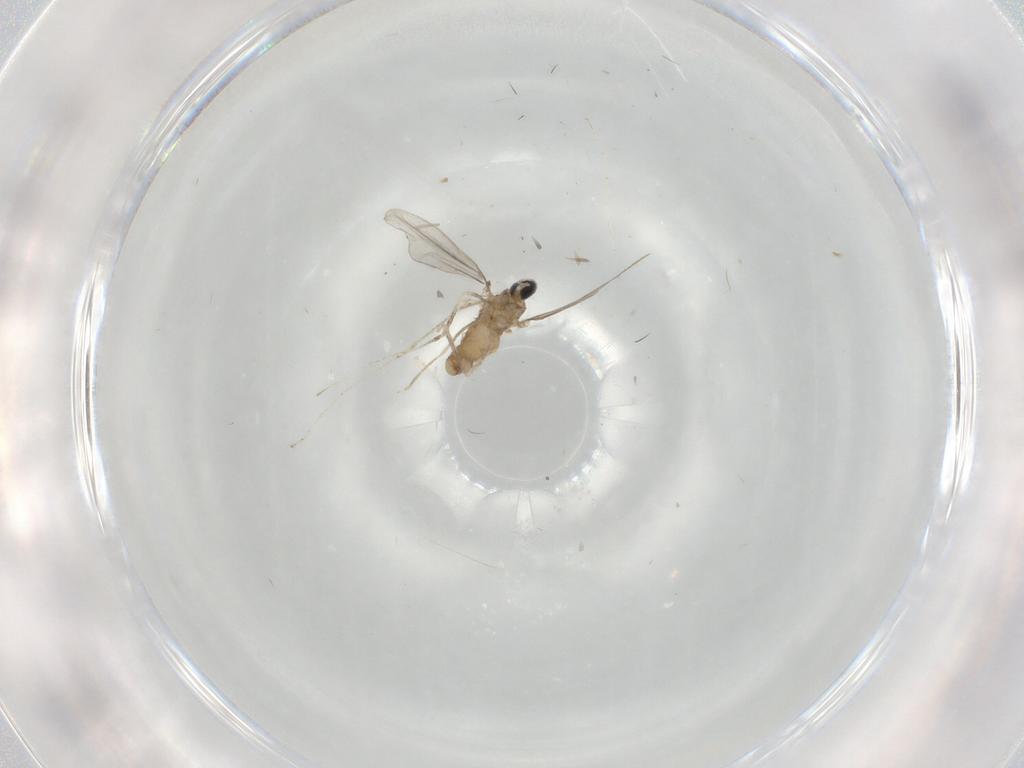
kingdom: Animalia
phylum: Arthropoda
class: Insecta
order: Diptera
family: Cecidomyiidae
